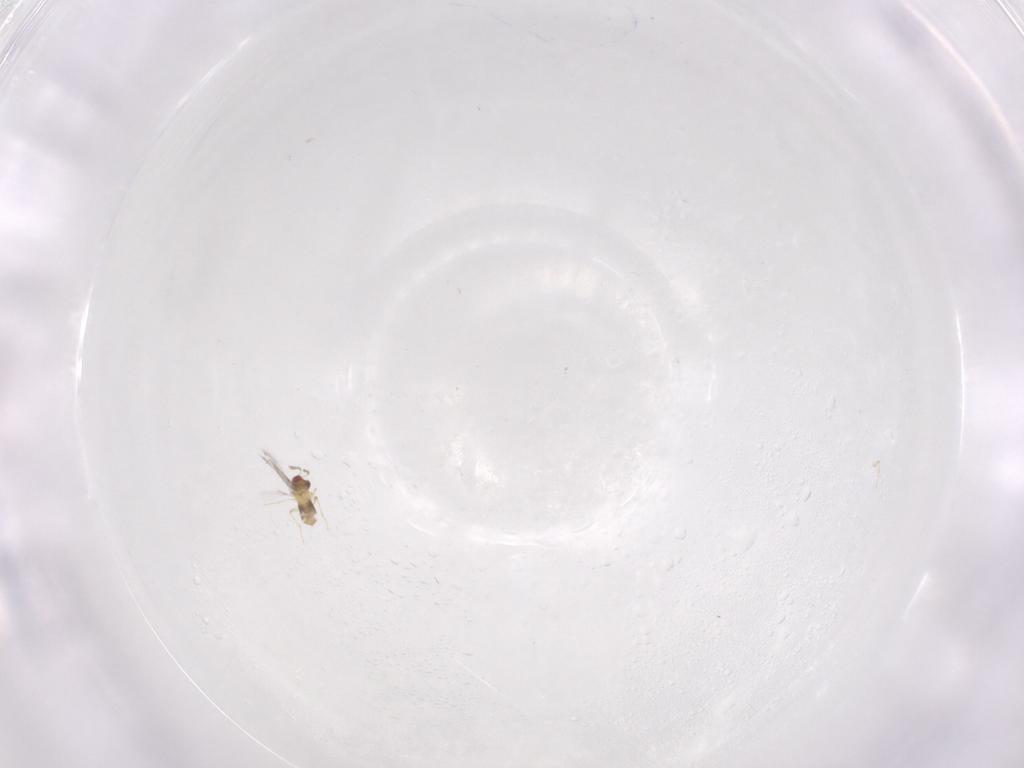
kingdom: Animalia
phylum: Arthropoda
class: Insecta
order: Hymenoptera
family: Trichogrammatidae
